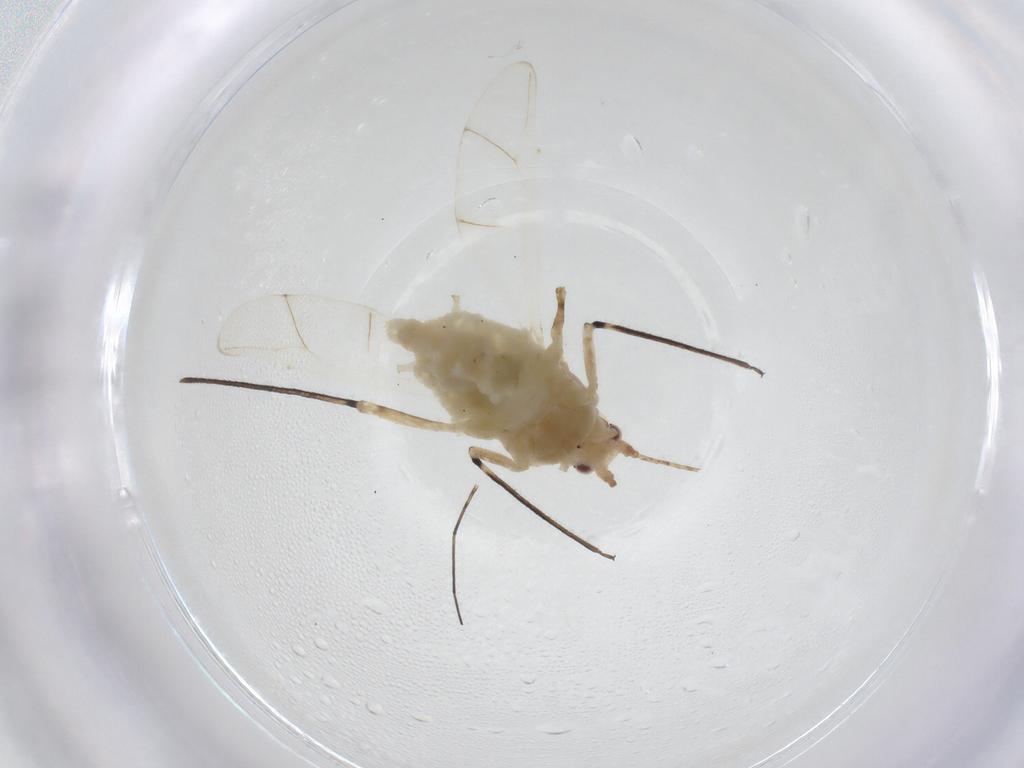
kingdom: Animalia
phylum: Arthropoda
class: Insecta
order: Hemiptera
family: Aphididae
